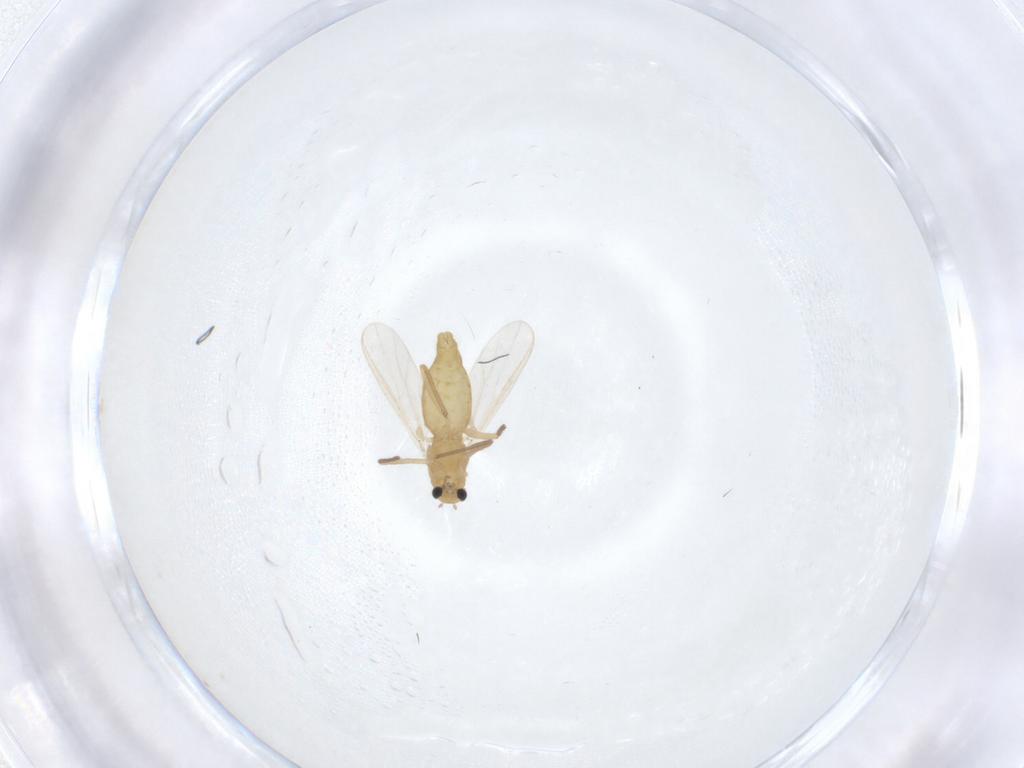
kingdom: Animalia
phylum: Arthropoda
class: Insecta
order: Diptera
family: Chironomidae
